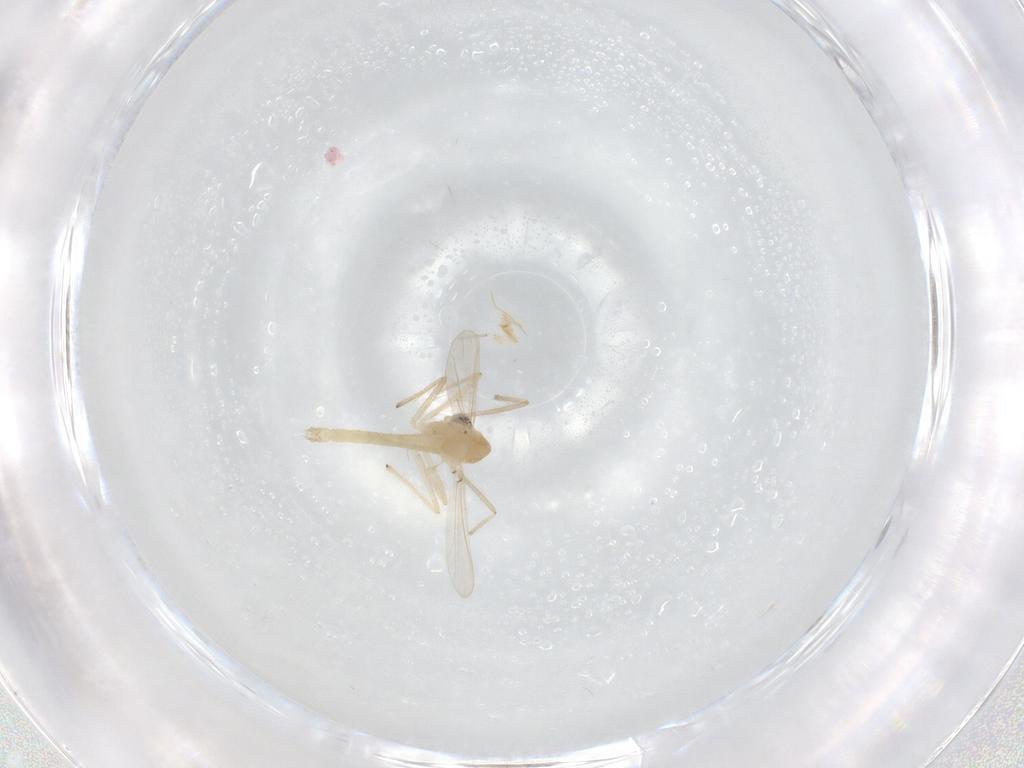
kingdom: Animalia
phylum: Arthropoda
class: Insecta
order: Diptera
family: Chironomidae
